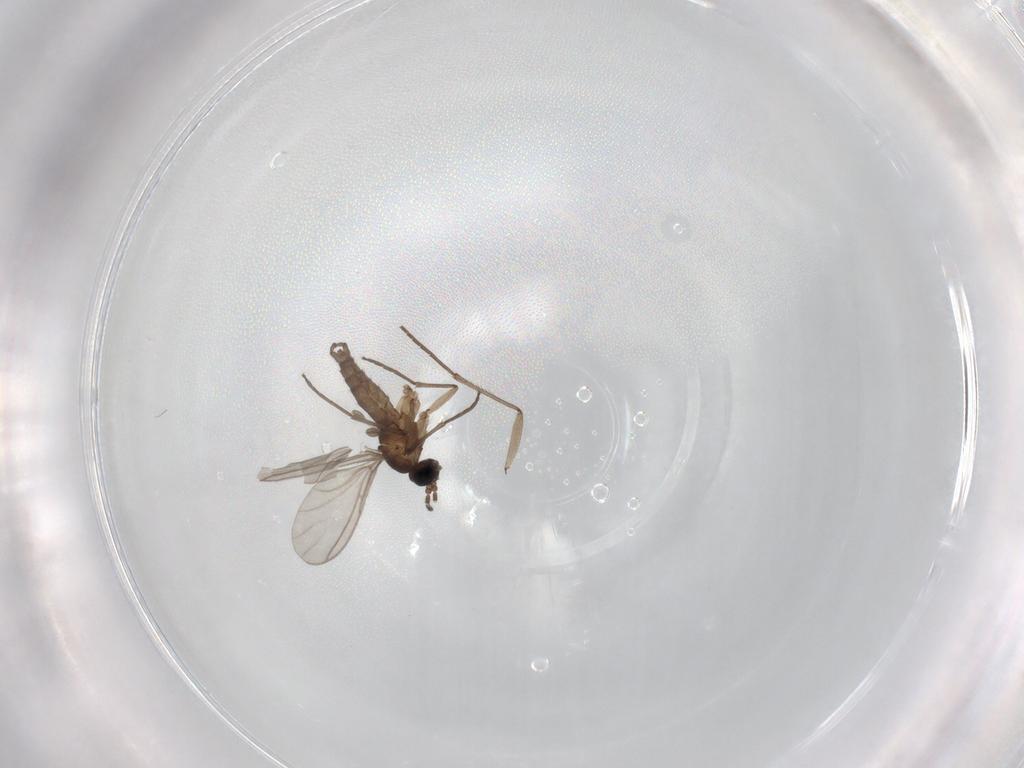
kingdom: Animalia
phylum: Arthropoda
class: Insecta
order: Diptera
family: Sciaridae
